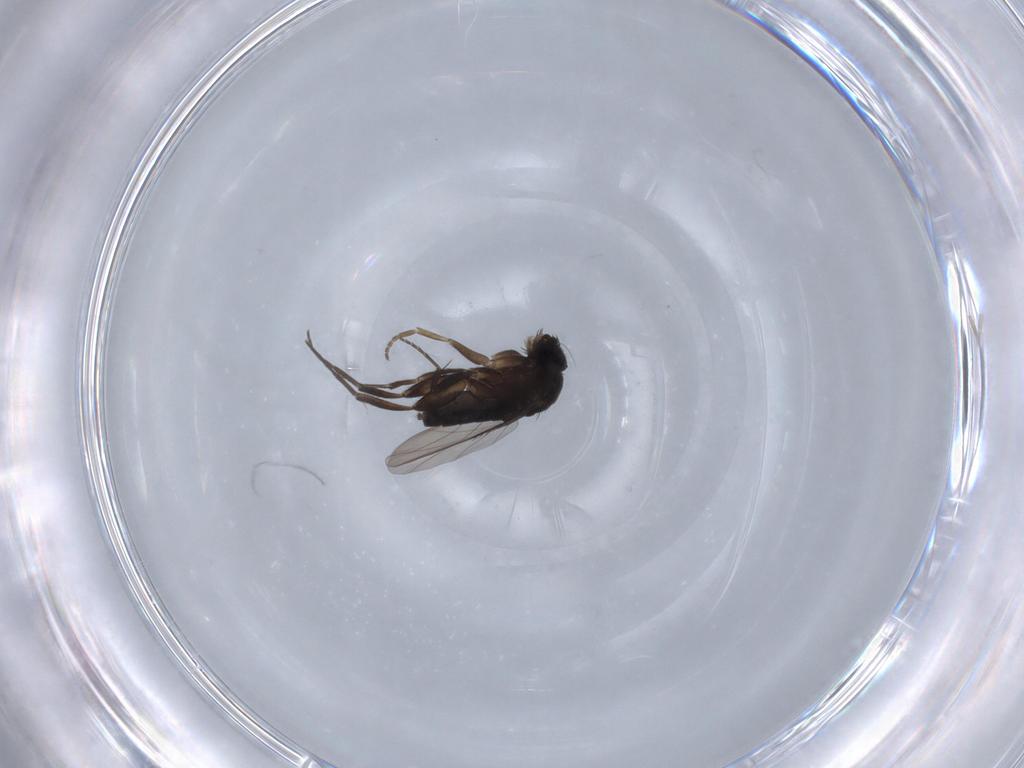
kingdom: Animalia
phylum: Arthropoda
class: Insecta
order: Diptera
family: Phoridae
